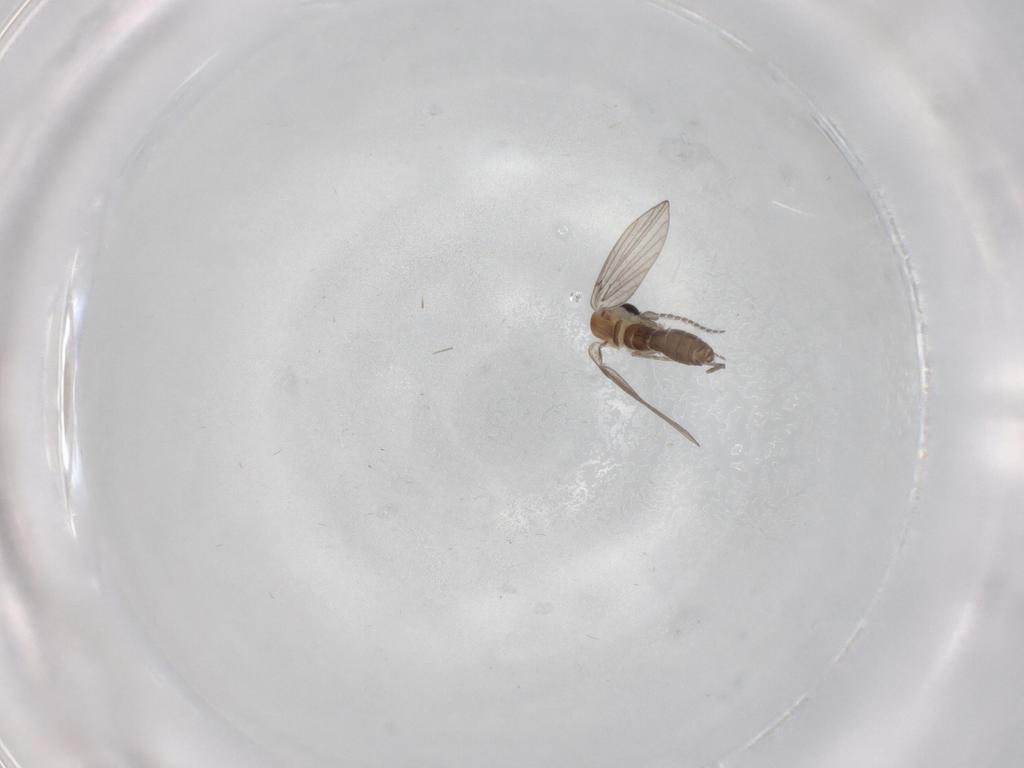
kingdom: Animalia
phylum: Arthropoda
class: Insecta
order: Diptera
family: Psychodidae
